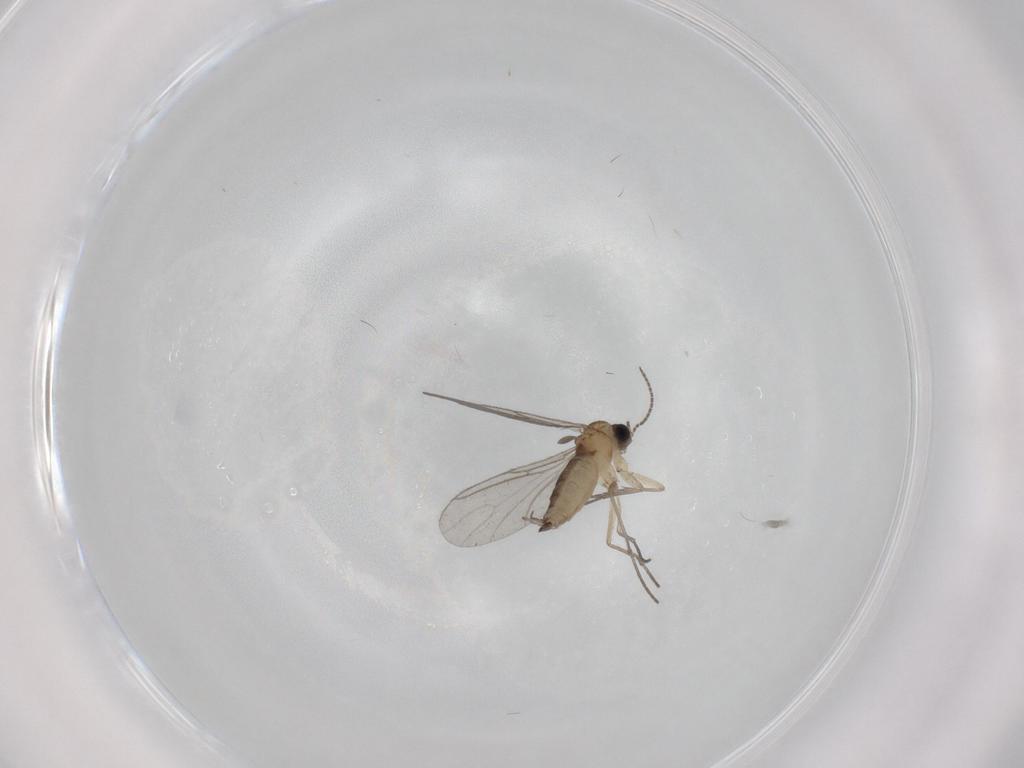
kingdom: Animalia
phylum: Arthropoda
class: Insecta
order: Diptera
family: Sciaridae
